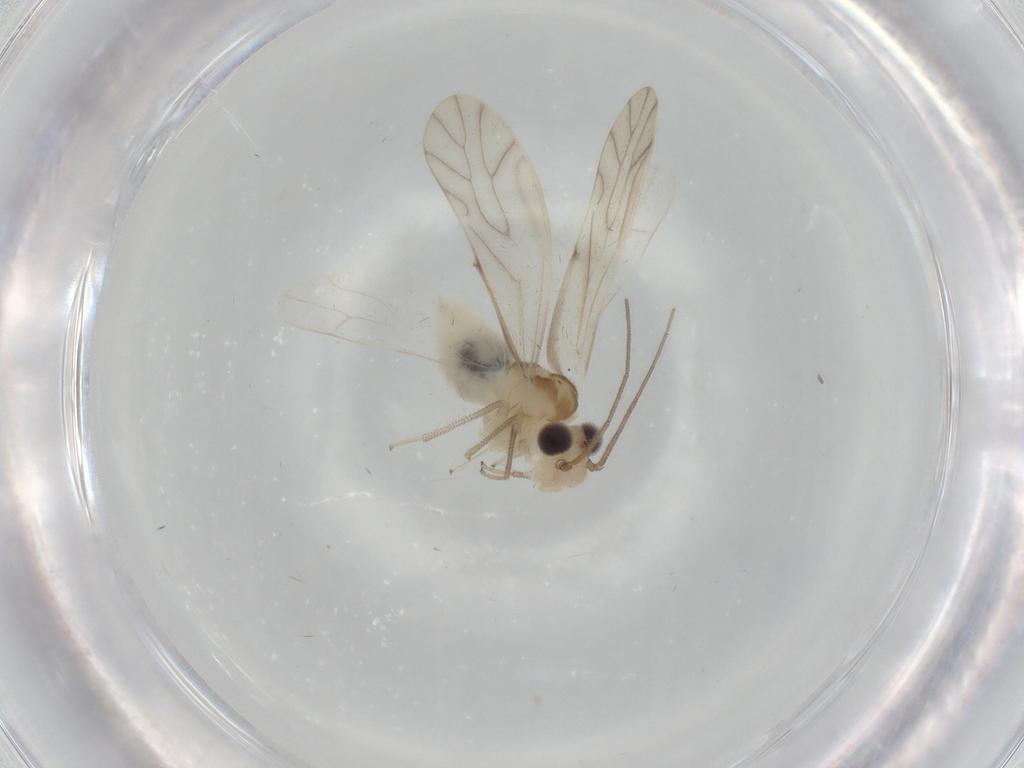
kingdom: Animalia
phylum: Arthropoda
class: Insecta
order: Psocodea
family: Caeciliusidae
